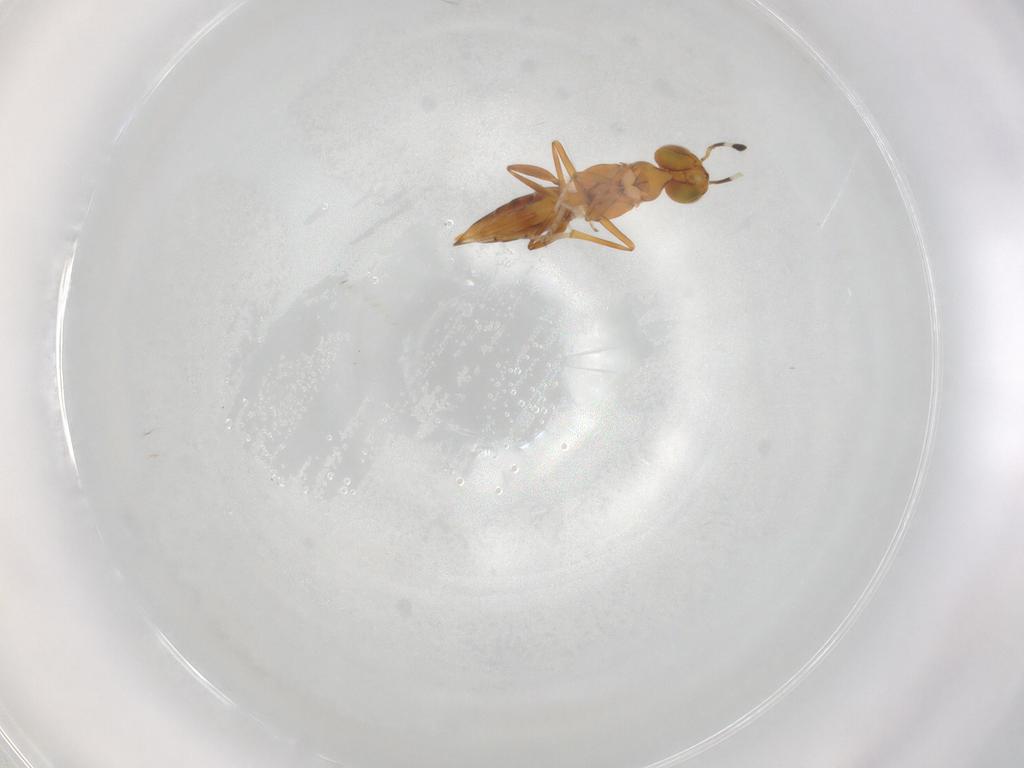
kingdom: Animalia
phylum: Arthropoda
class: Insecta
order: Hymenoptera
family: Encyrtidae
